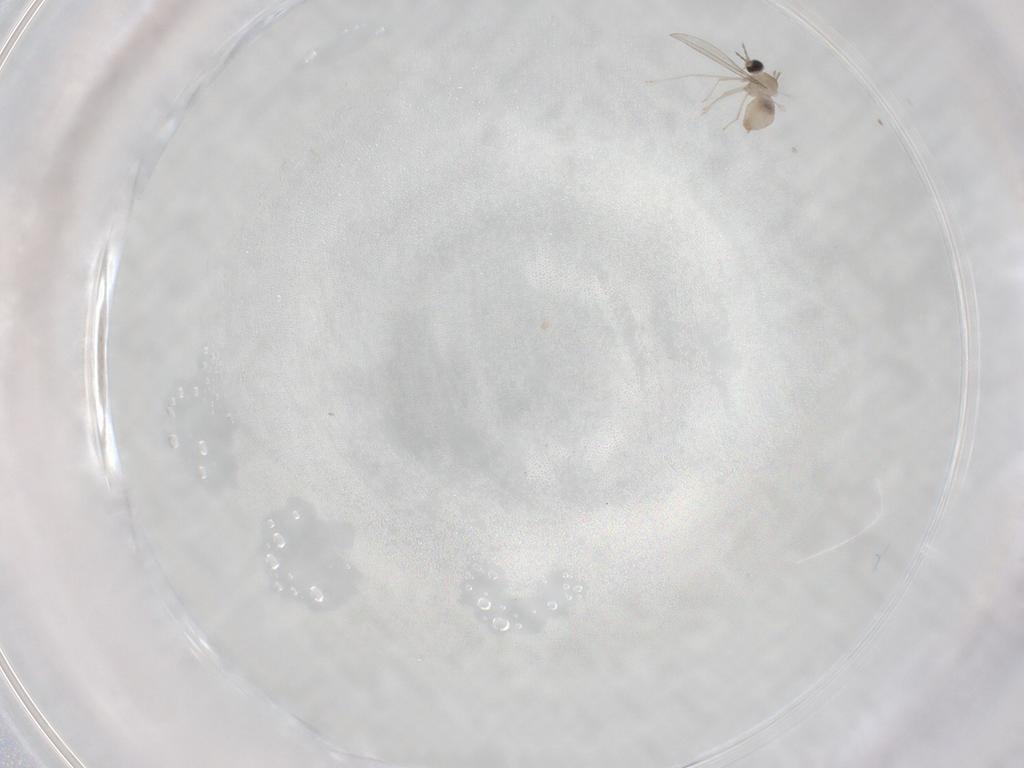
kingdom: Animalia
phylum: Arthropoda
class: Insecta
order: Diptera
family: Cecidomyiidae
